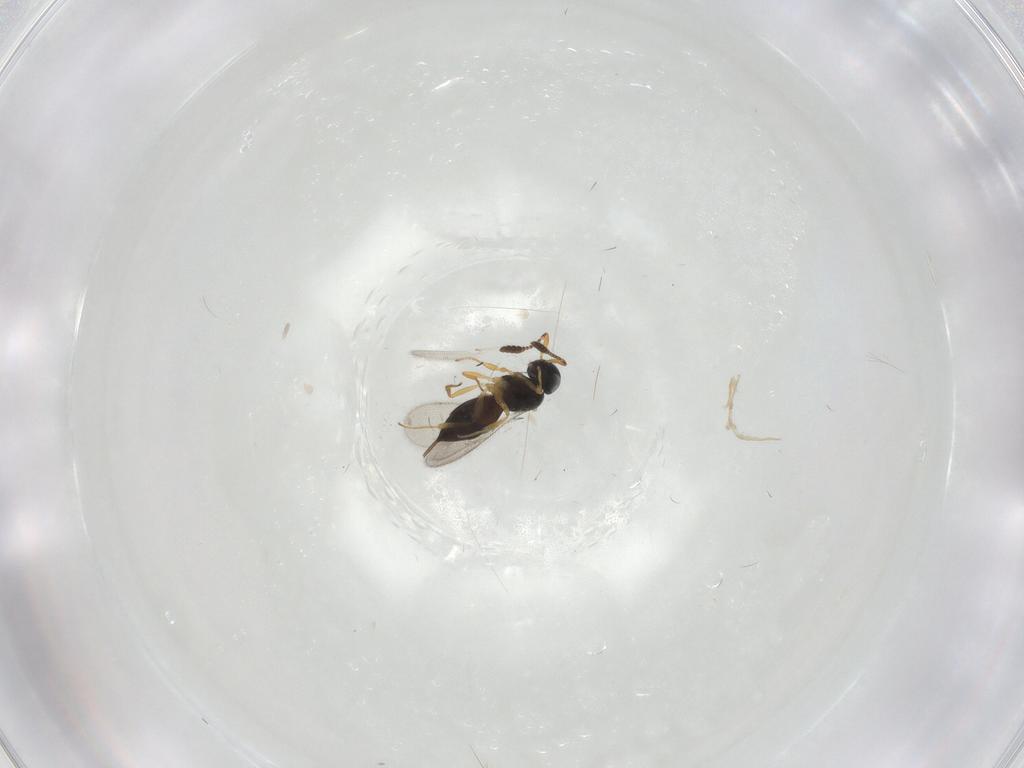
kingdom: Animalia
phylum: Arthropoda
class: Insecta
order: Hymenoptera
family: Scelionidae
